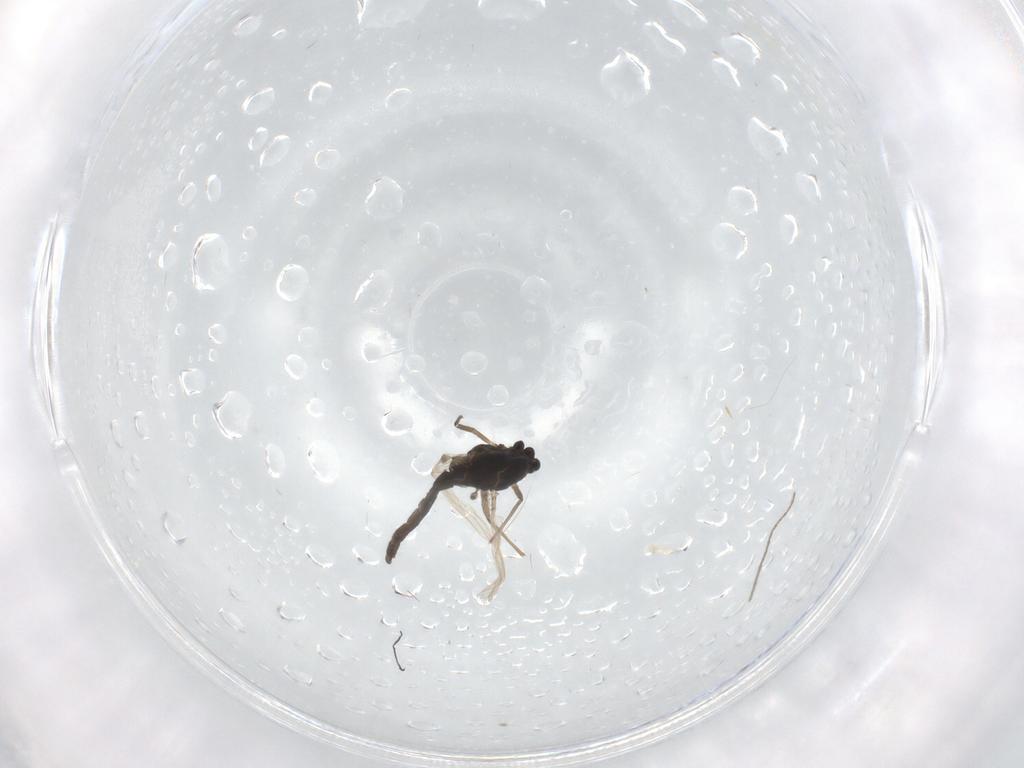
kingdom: Animalia
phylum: Arthropoda
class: Insecta
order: Diptera
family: Chironomidae
